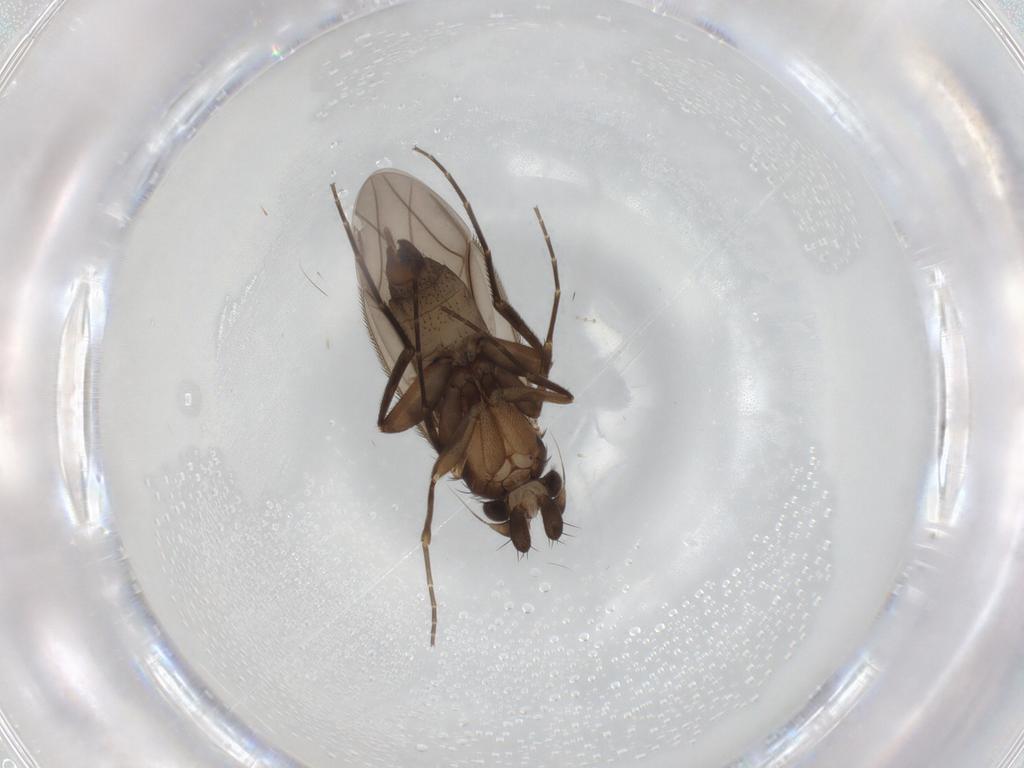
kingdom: Animalia
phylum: Arthropoda
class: Insecta
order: Diptera
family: Phoridae
